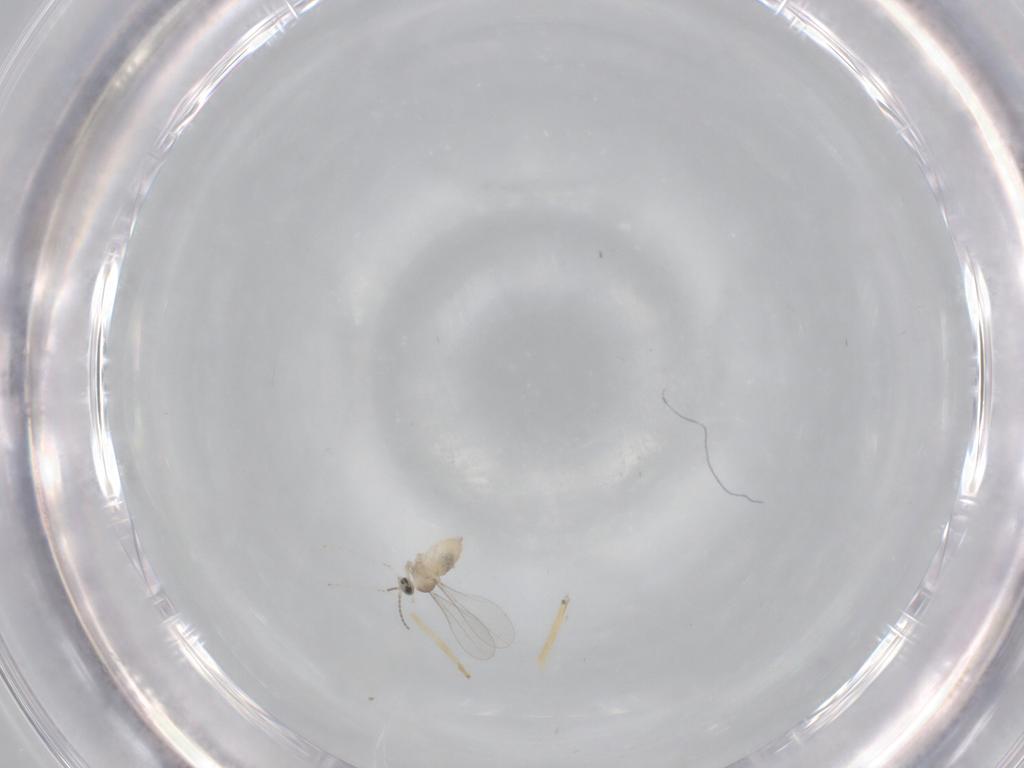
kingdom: Animalia
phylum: Arthropoda
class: Insecta
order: Diptera
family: Cecidomyiidae
